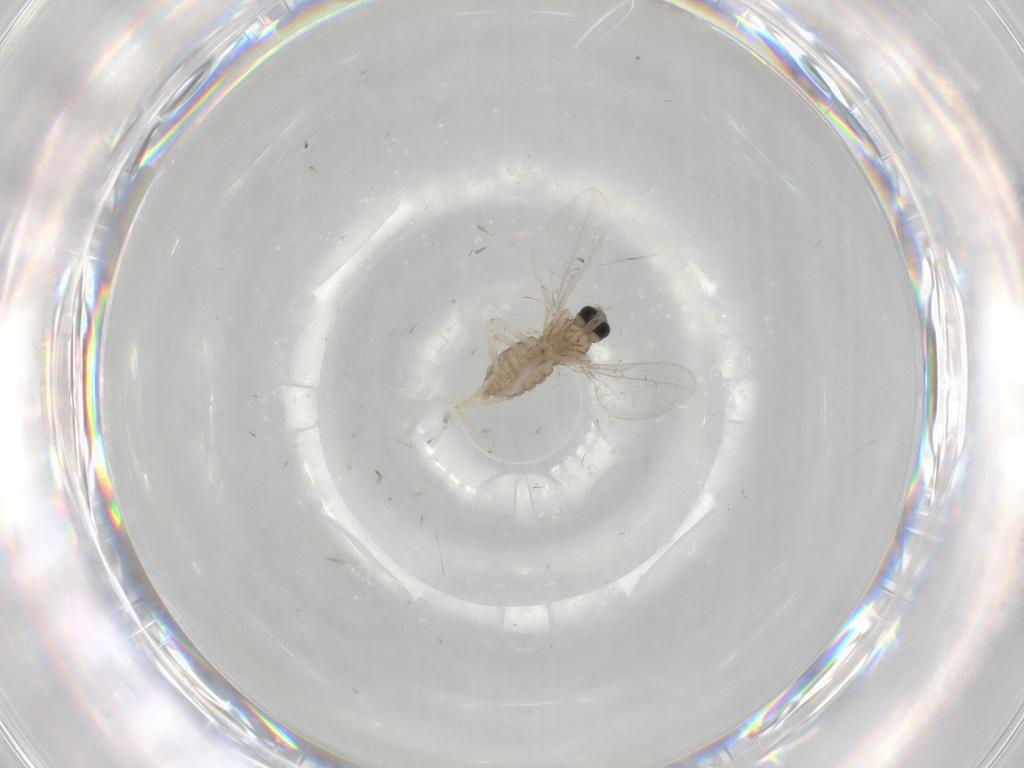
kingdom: Animalia
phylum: Arthropoda
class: Insecta
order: Diptera
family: Cecidomyiidae
